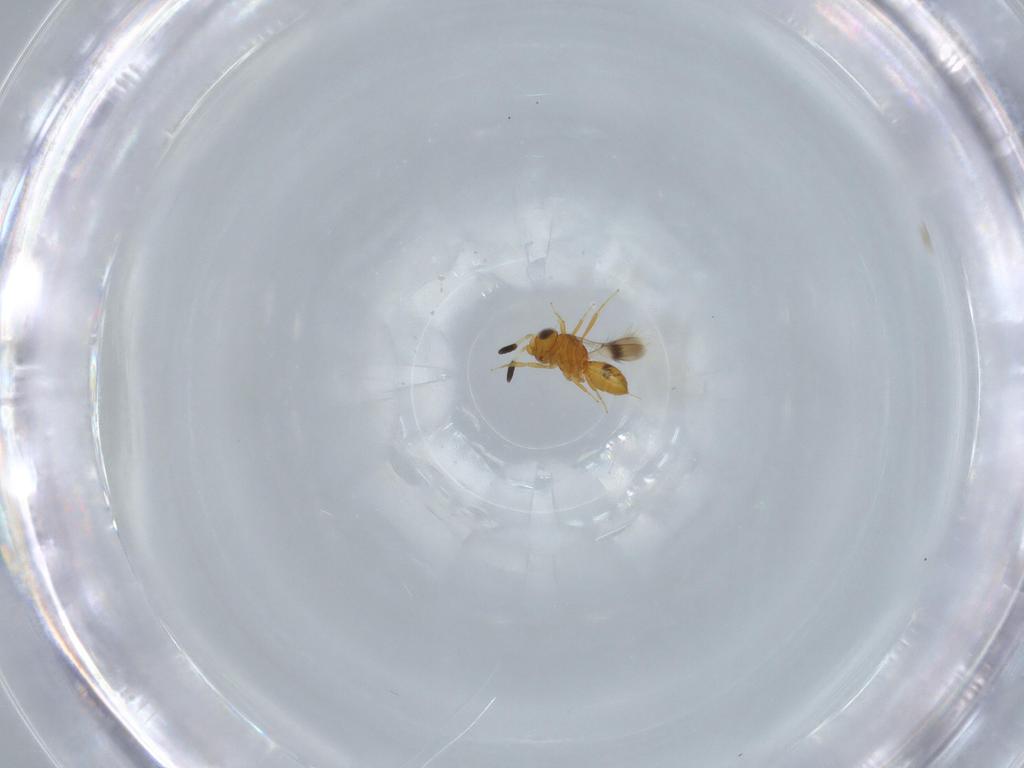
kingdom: Animalia
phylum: Arthropoda
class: Insecta
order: Hymenoptera
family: Scelionidae
